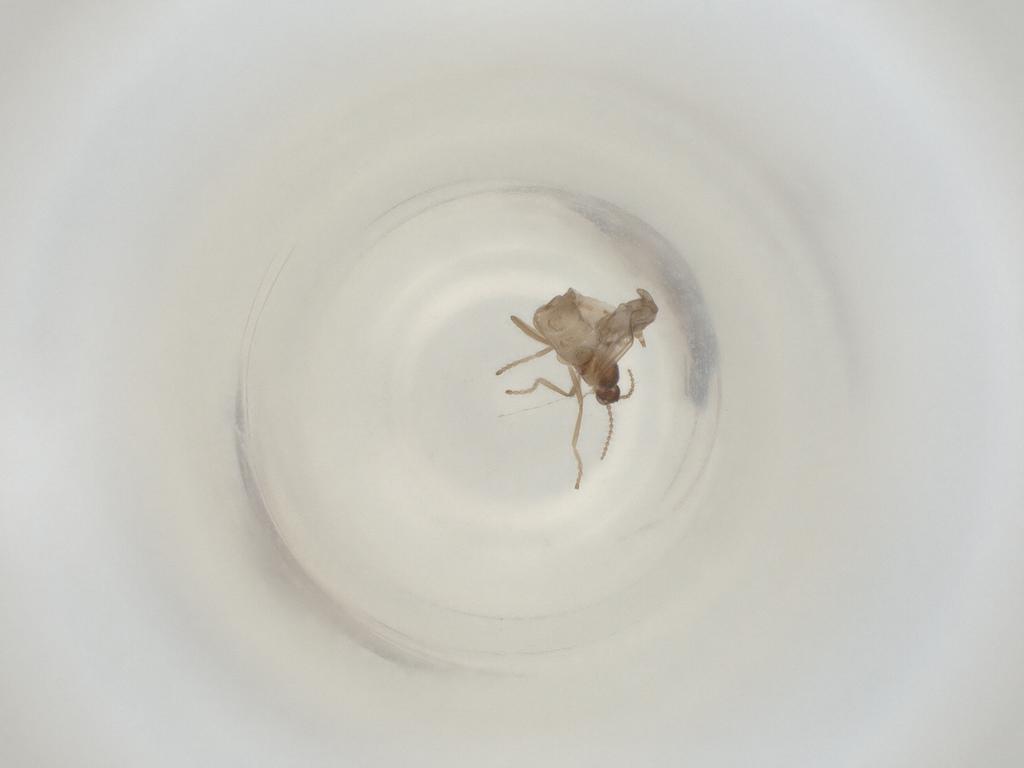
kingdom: Animalia
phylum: Arthropoda
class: Insecta
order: Diptera
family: Cecidomyiidae
